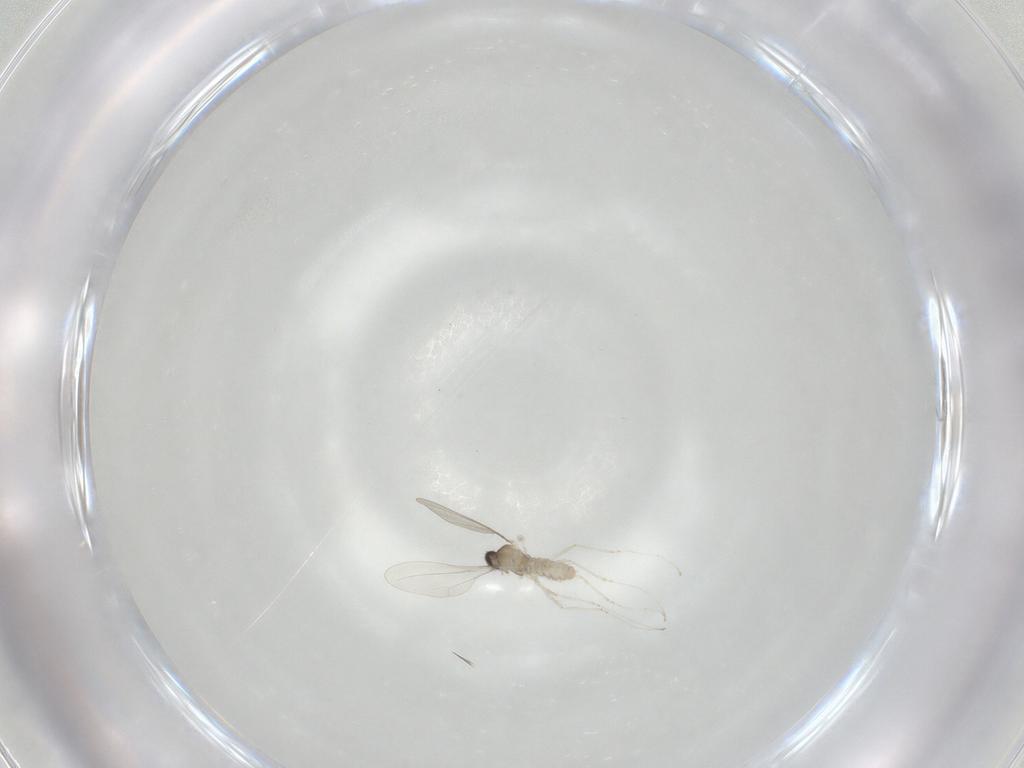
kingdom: Animalia
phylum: Arthropoda
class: Insecta
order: Diptera
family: Cecidomyiidae
